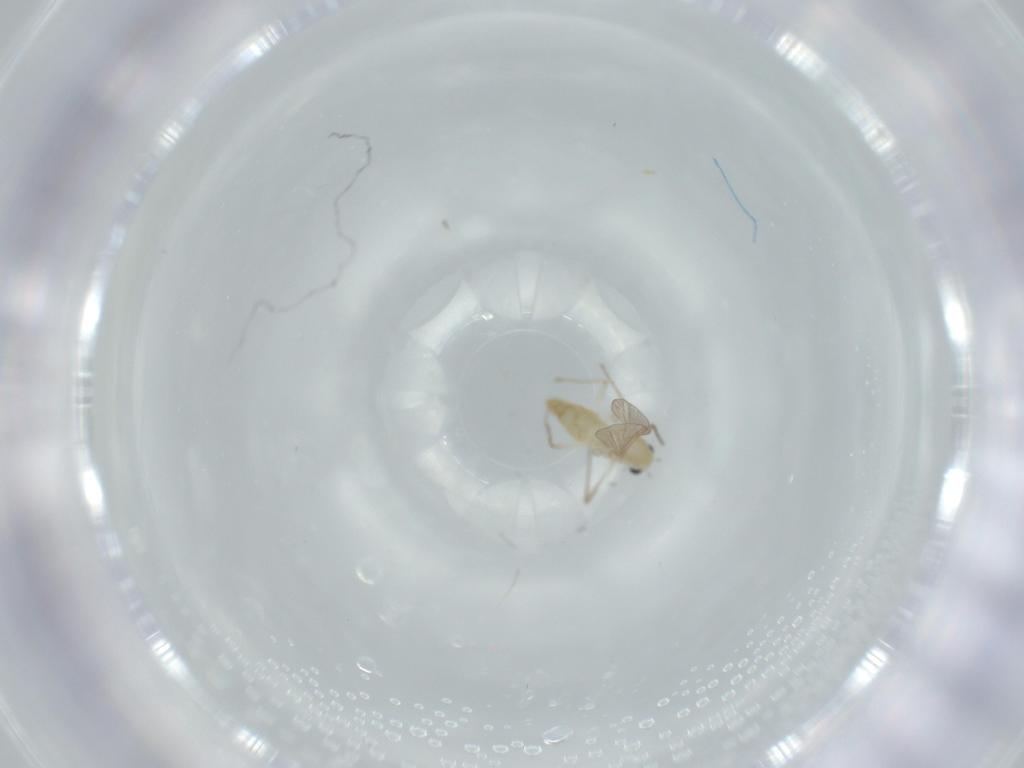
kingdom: Animalia
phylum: Arthropoda
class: Insecta
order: Diptera
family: Chironomidae
